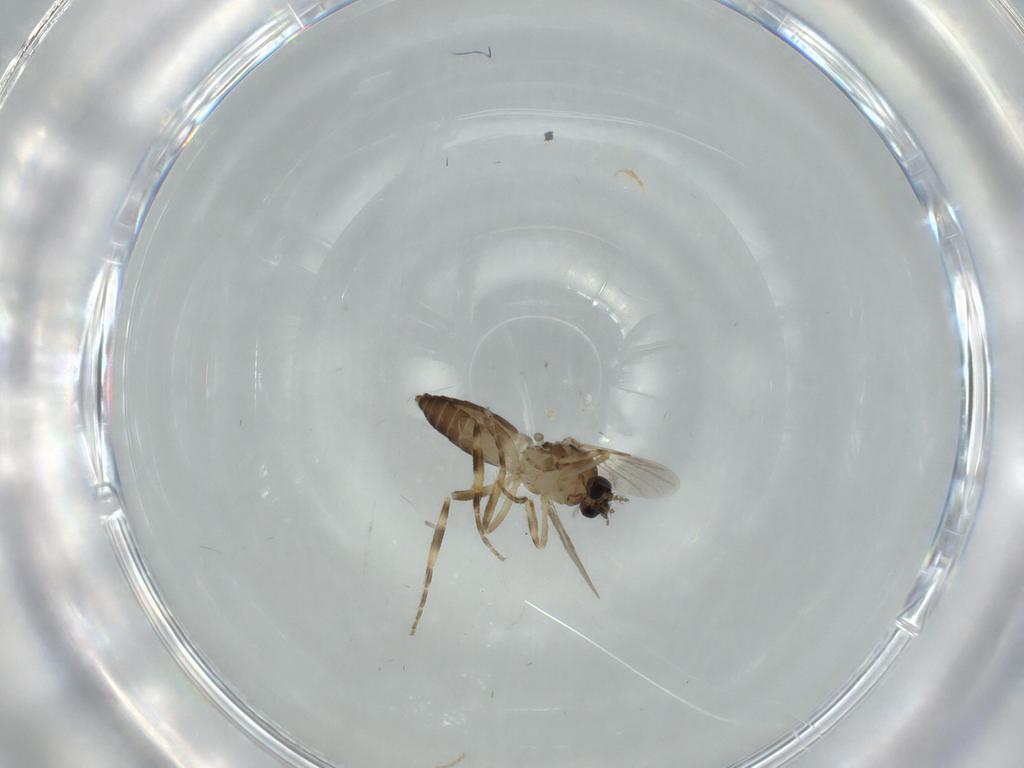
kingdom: Animalia
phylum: Arthropoda
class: Insecta
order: Diptera
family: Ceratopogonidae
